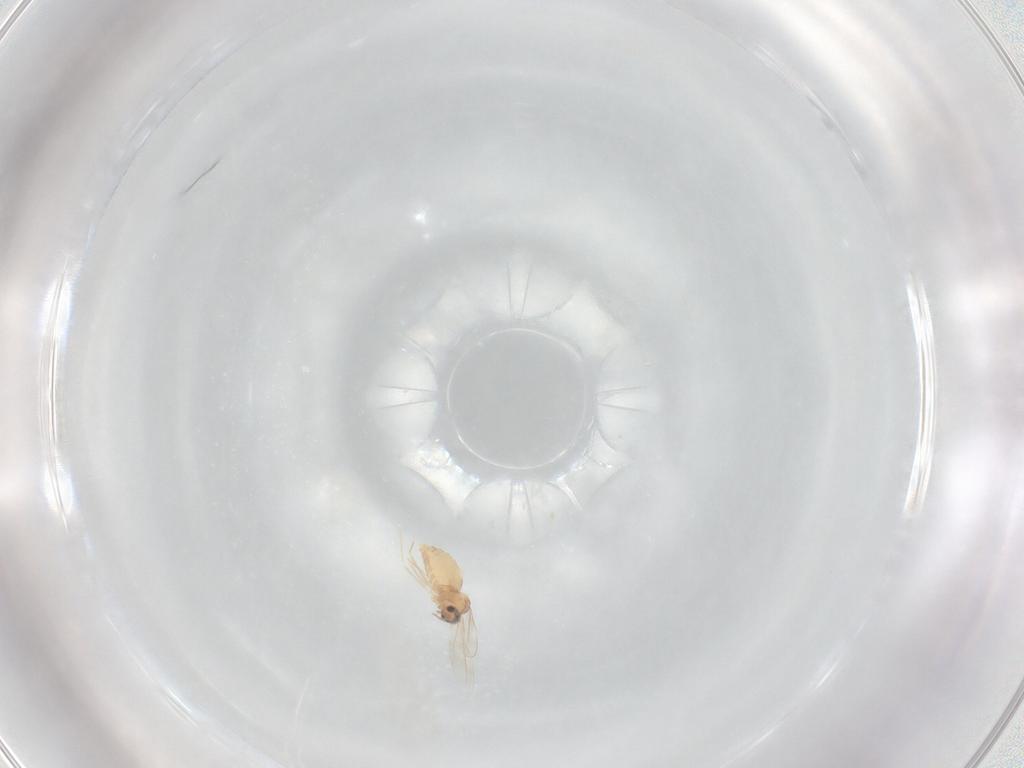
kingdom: Animalia
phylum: Arthropoda
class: Insecta
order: Diptera
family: Cecidomyiidae
